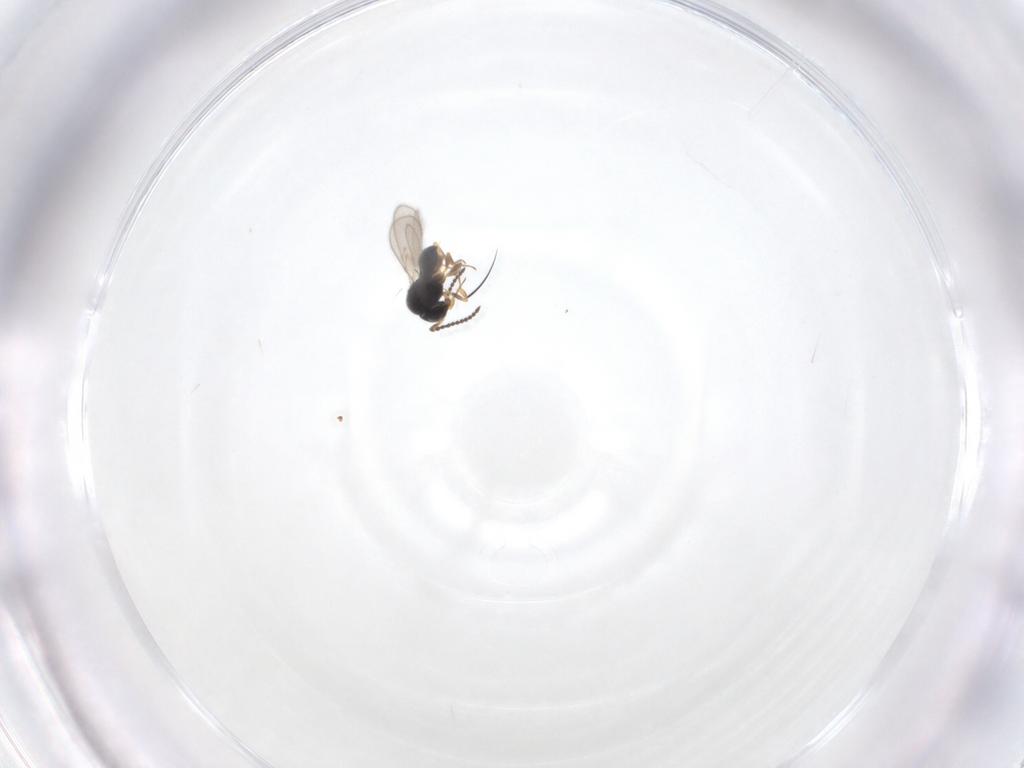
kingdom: Animalia
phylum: Arthropoda
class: Insecta
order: Hymenoptera
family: Scelionidae
